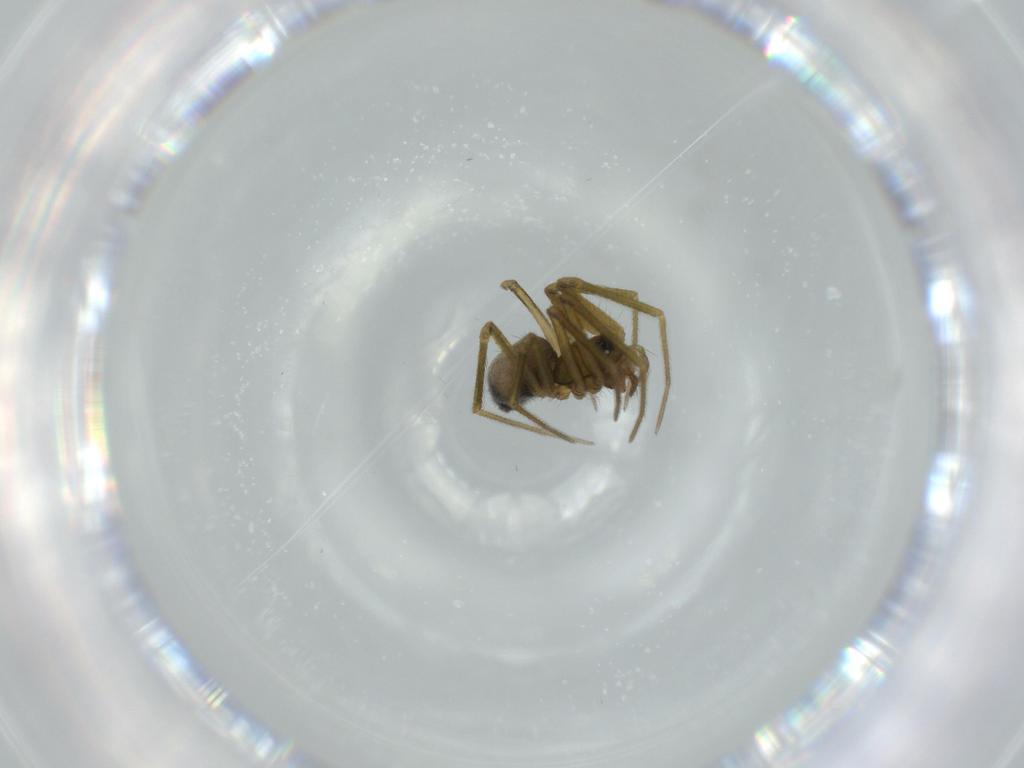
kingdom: Animalia
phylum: Arthropoda
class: Arachnida
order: Araneae
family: Linyphiidae
